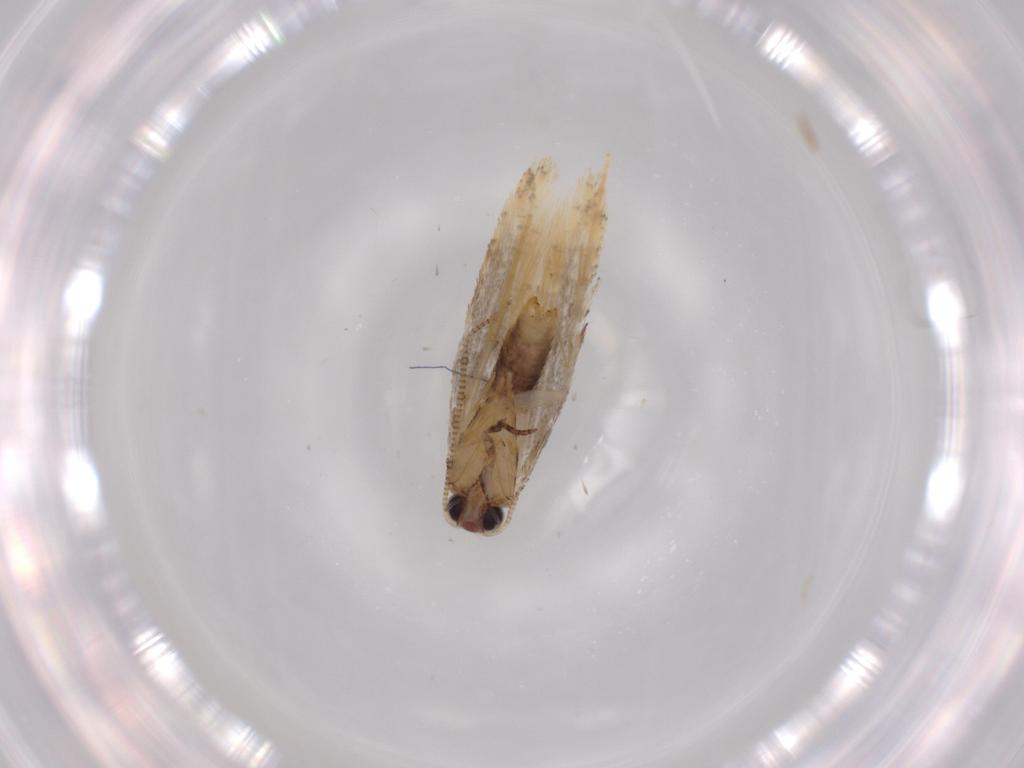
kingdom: Animalia
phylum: Arthropoda
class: Insecta
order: Lepidoptera
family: Tineidae
